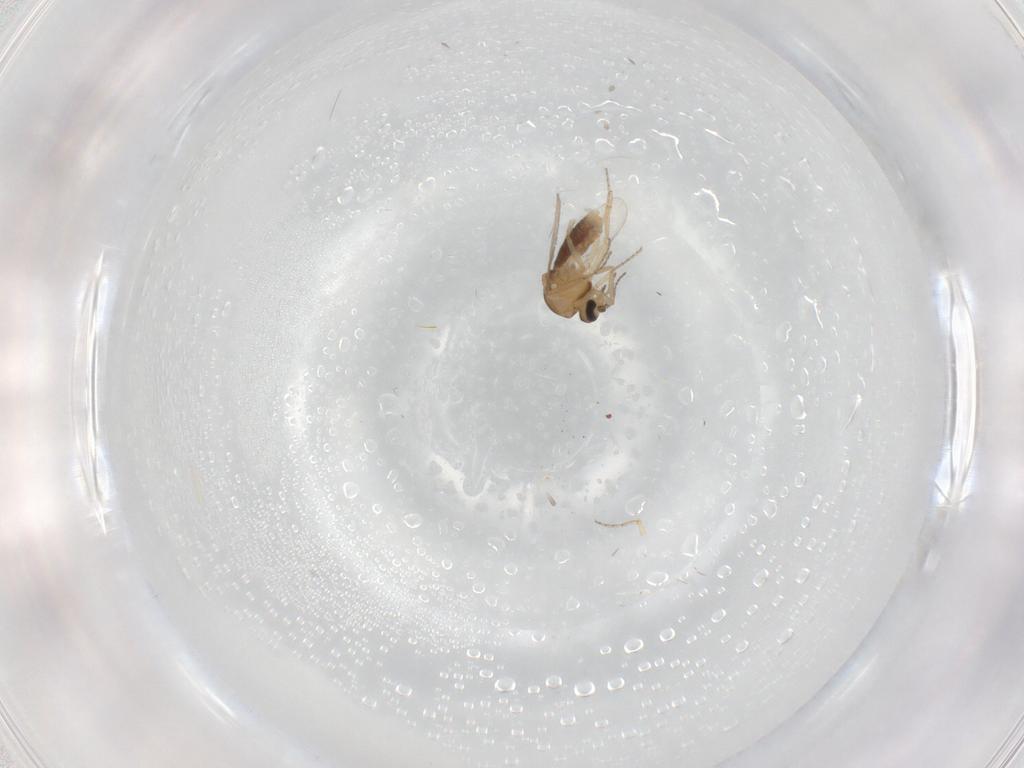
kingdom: Animalia
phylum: Arthropoda
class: Insecta
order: Diptera
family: Ceratopogonidae
